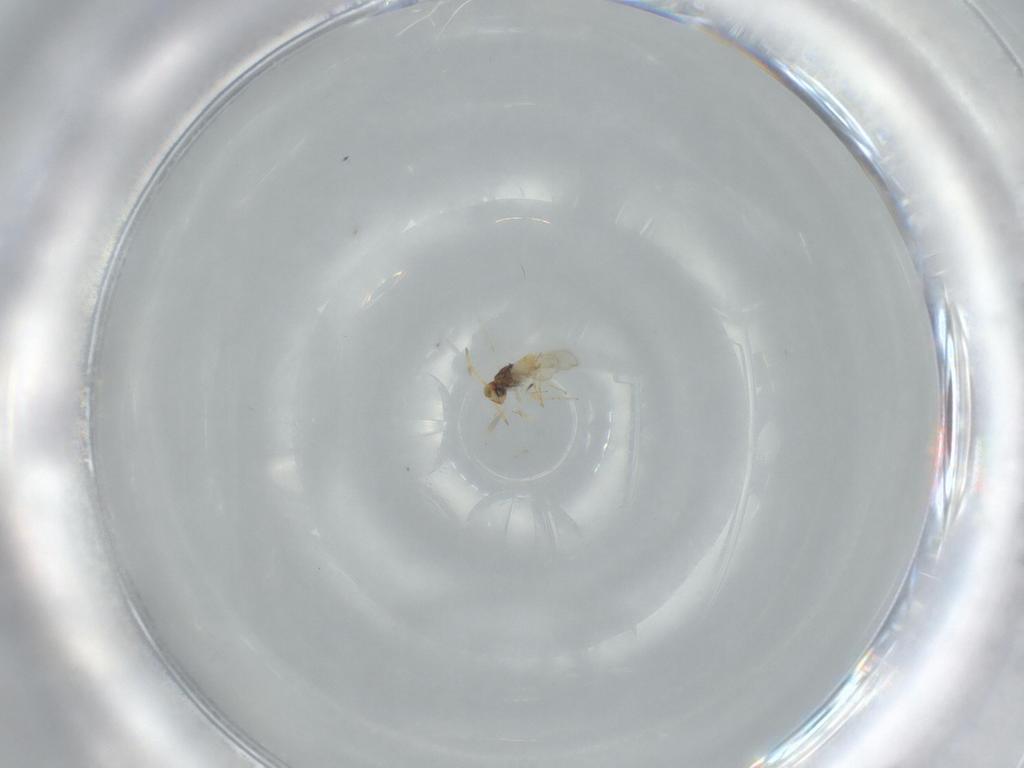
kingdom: Animalia
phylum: Arthropoda
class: Insecta
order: Hymenoptera
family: Aphelinidae
